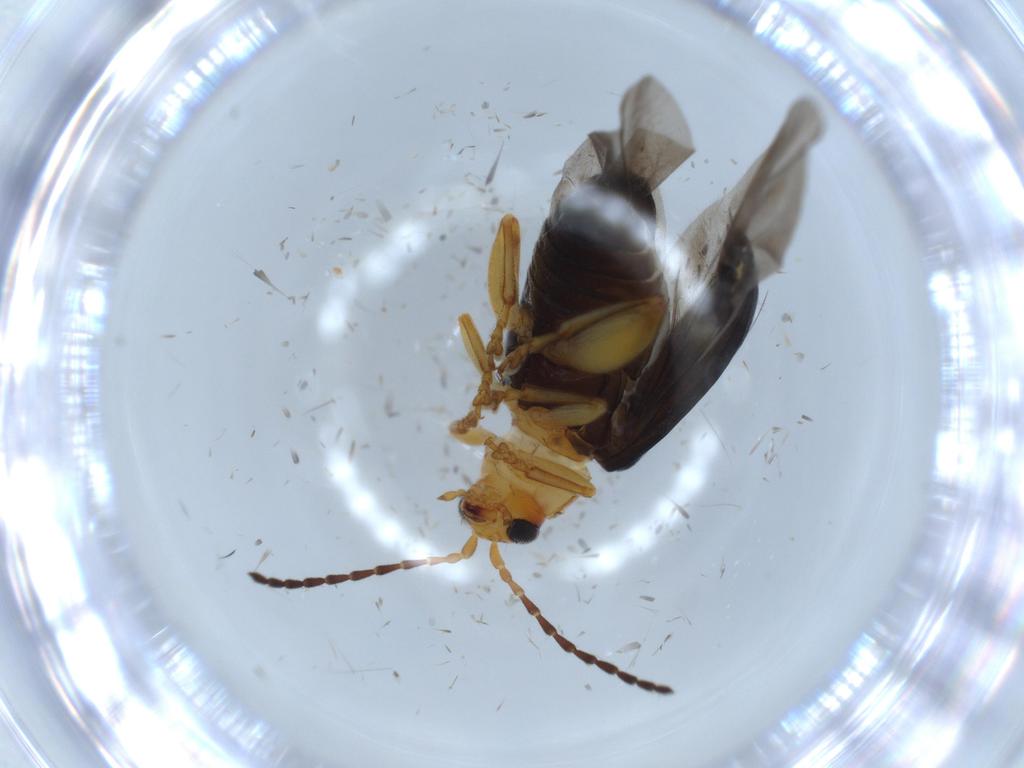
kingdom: Animalia
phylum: Arthropoda
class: Insecta
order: Coleoptera
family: Chrysomelidae
